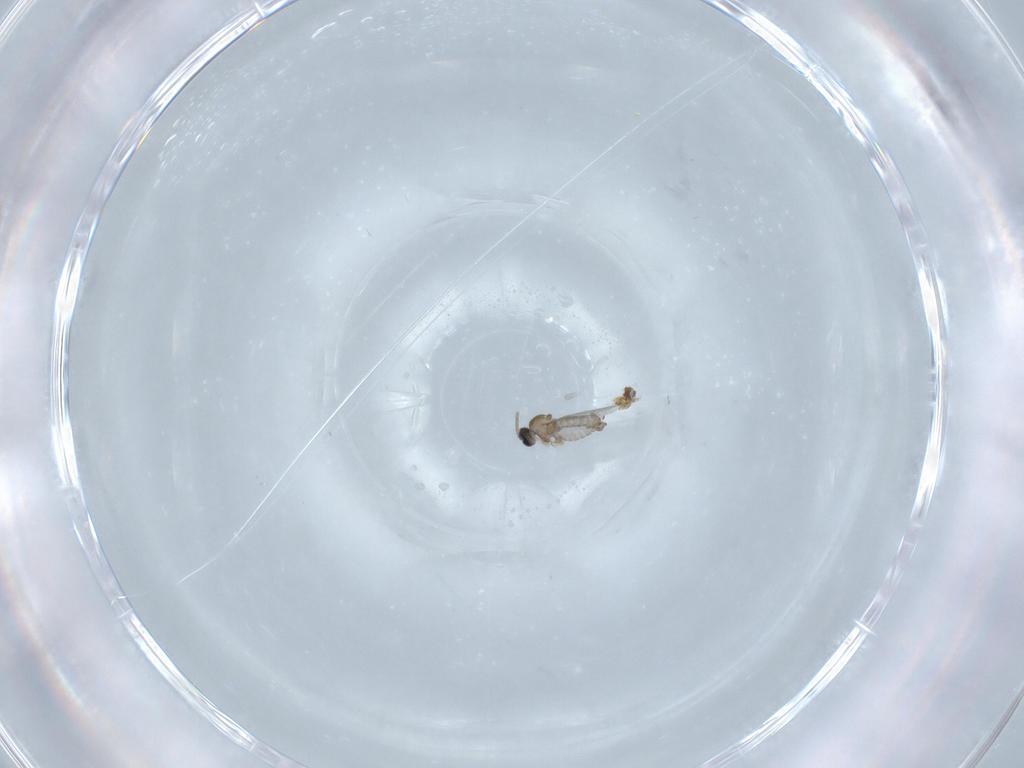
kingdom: Animalia
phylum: Arthropoda
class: Insecta
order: Diptera
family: Cecidomyiidae
